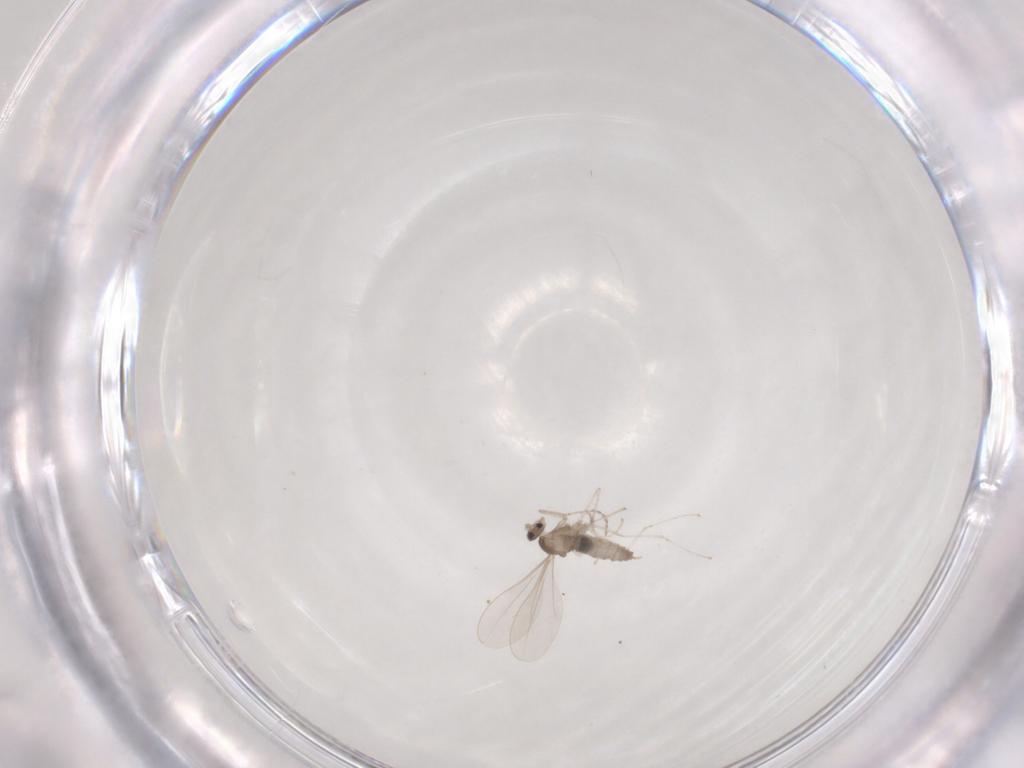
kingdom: Animalia
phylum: Arthropoda
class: Insecta
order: Diptera
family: Cecidomyiidae
